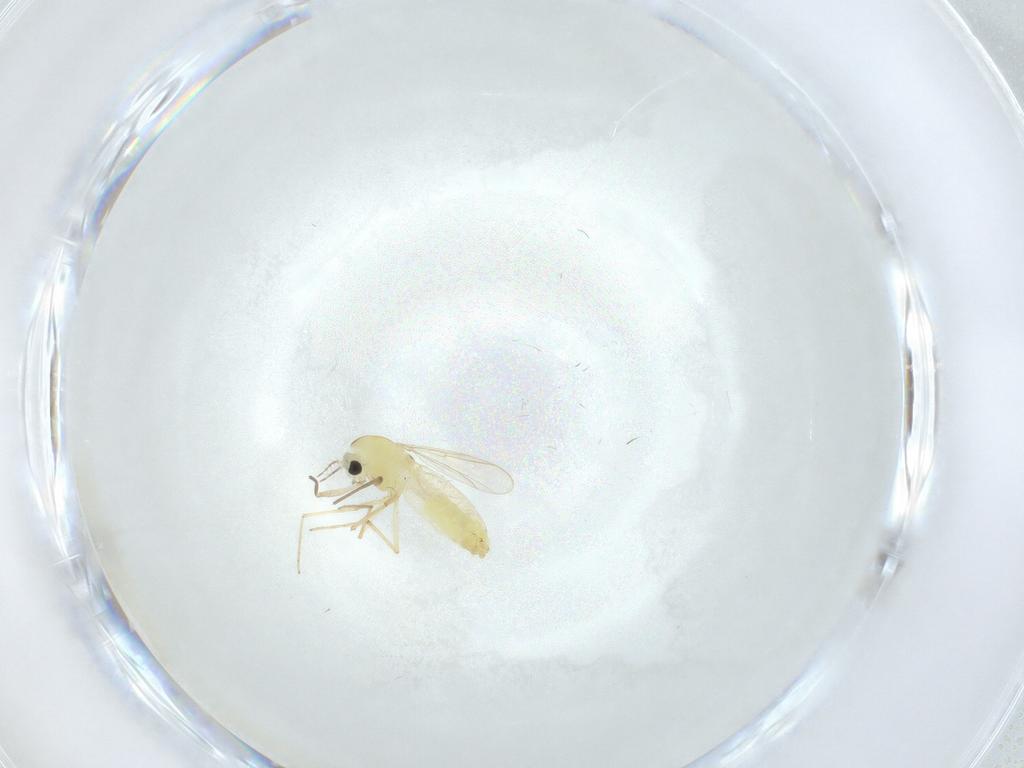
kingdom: Animalia
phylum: Arthropoda
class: Insecta
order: Diptera
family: Chironomidae
